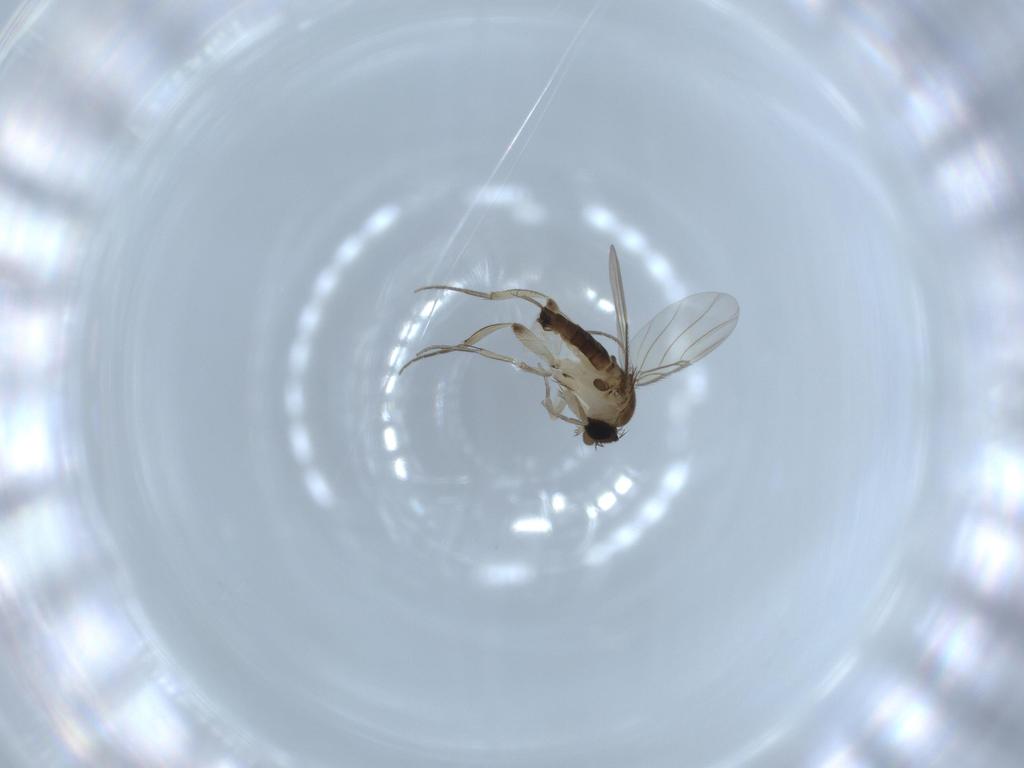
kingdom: Animalia
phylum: Arthropoda
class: Insecta
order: Diptera
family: Phoridae
